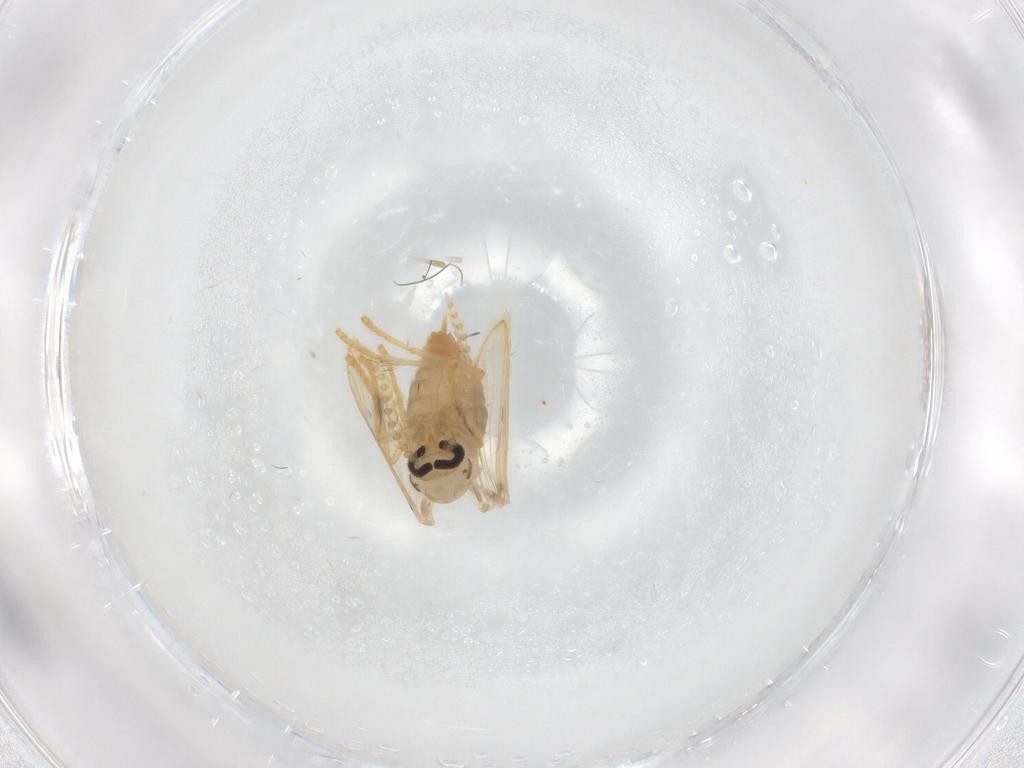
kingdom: Animalia
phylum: Arthropoda
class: Insecta
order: Diptera
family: Psychodidae
